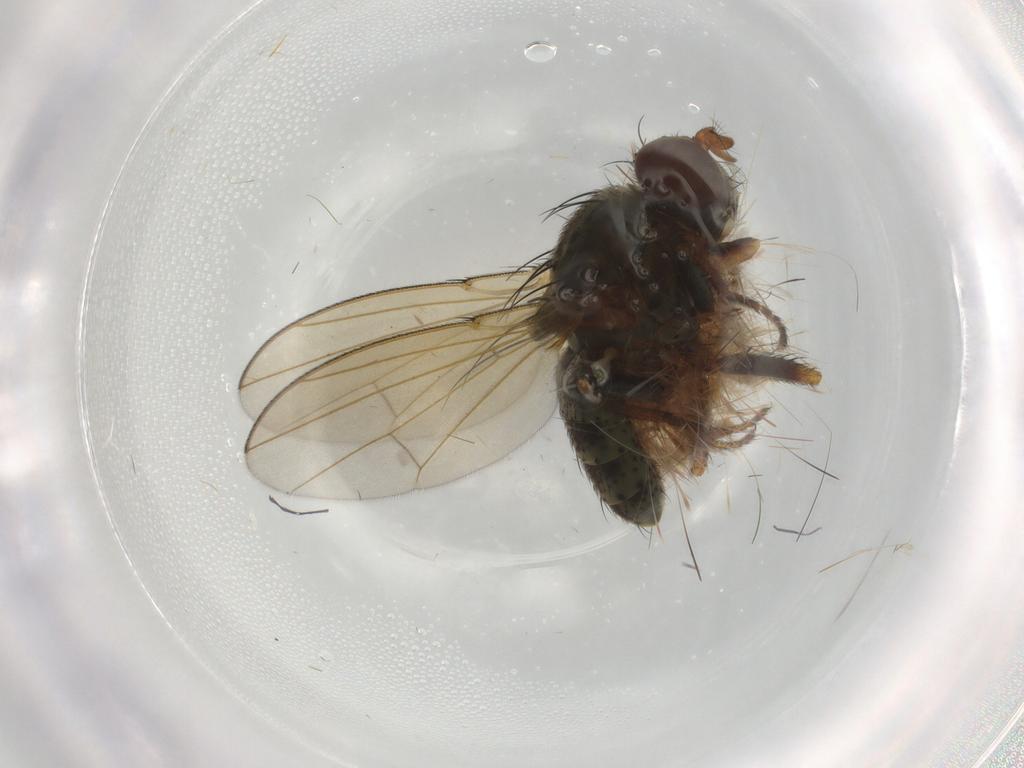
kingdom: Animalia
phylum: Arthropoda
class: Insecta
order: Diptera
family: Ephydridae
